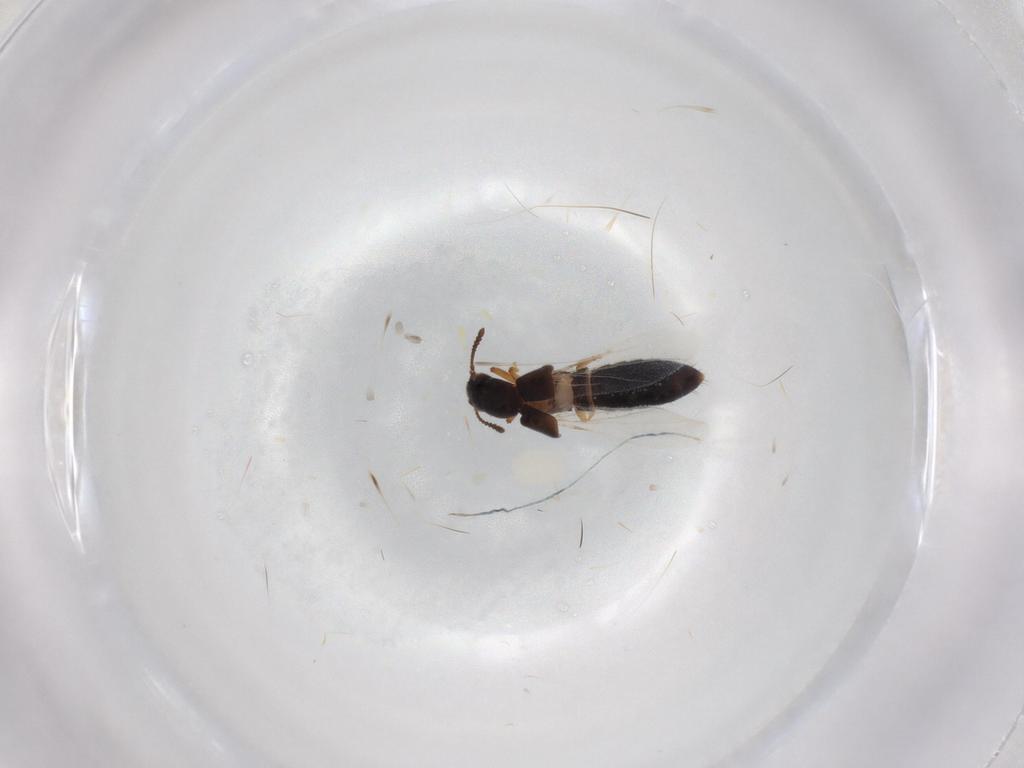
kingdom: Animalia
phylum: Arthropoda
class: Insecta
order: Coleoptera
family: Staphylinidae
